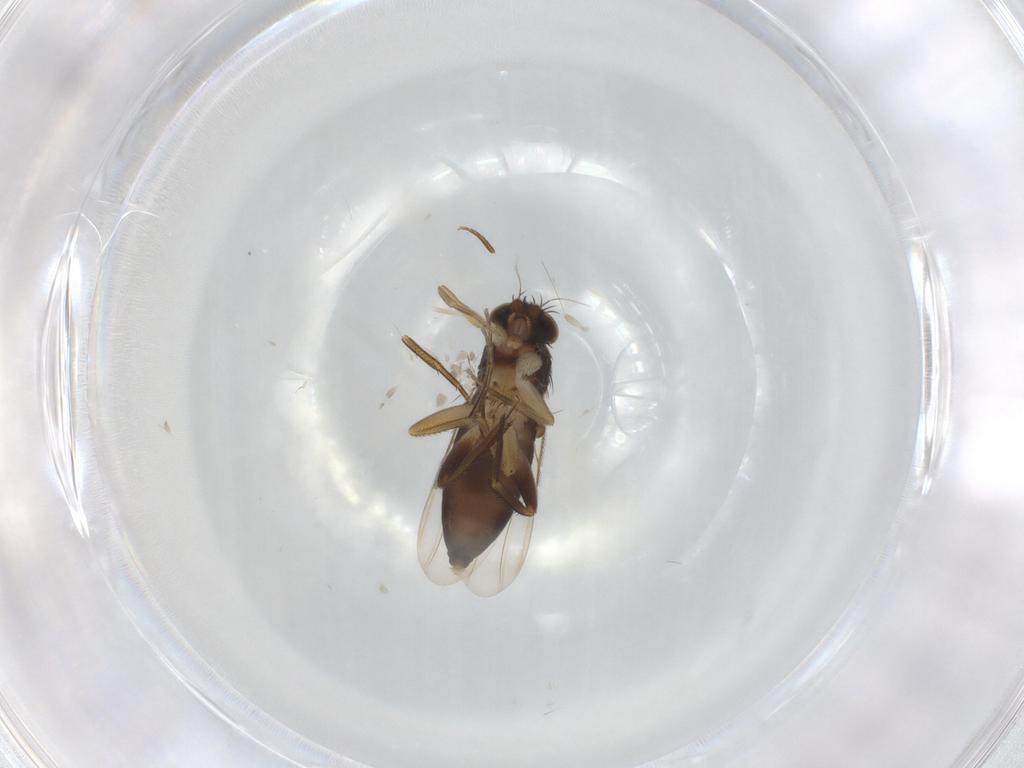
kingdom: Animalia
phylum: Arthropoda
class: Insecta
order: Diptera
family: Phoridae
